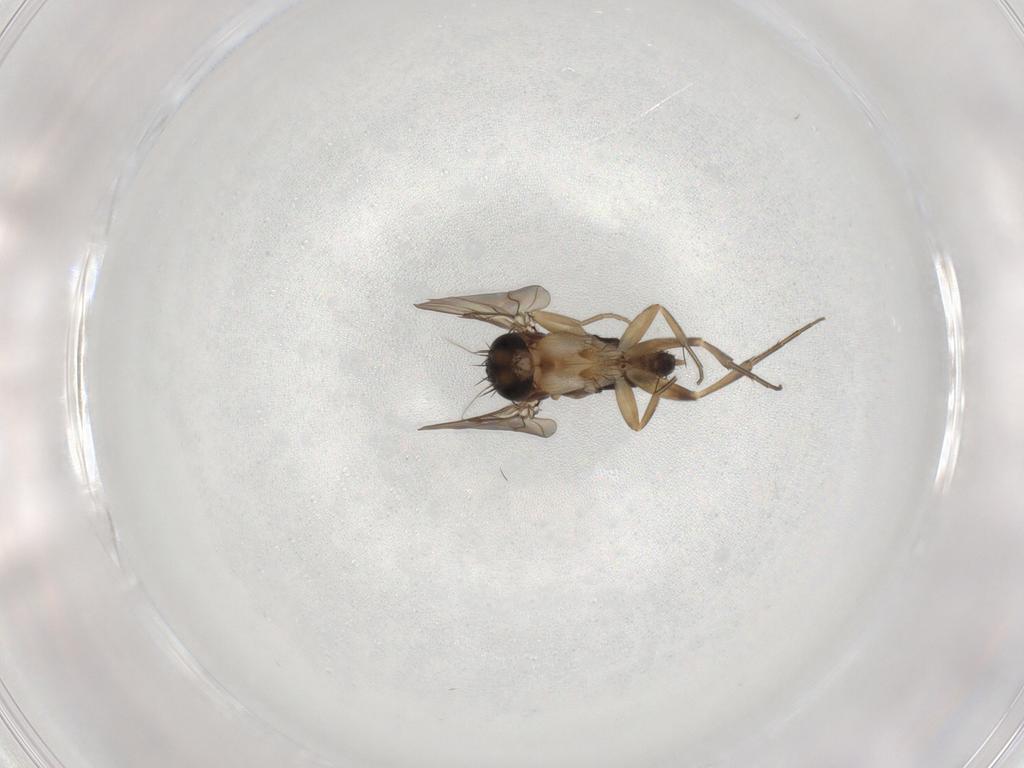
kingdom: Animalia
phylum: Arthropoda
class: Insecta
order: Diptera
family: Phoridae
